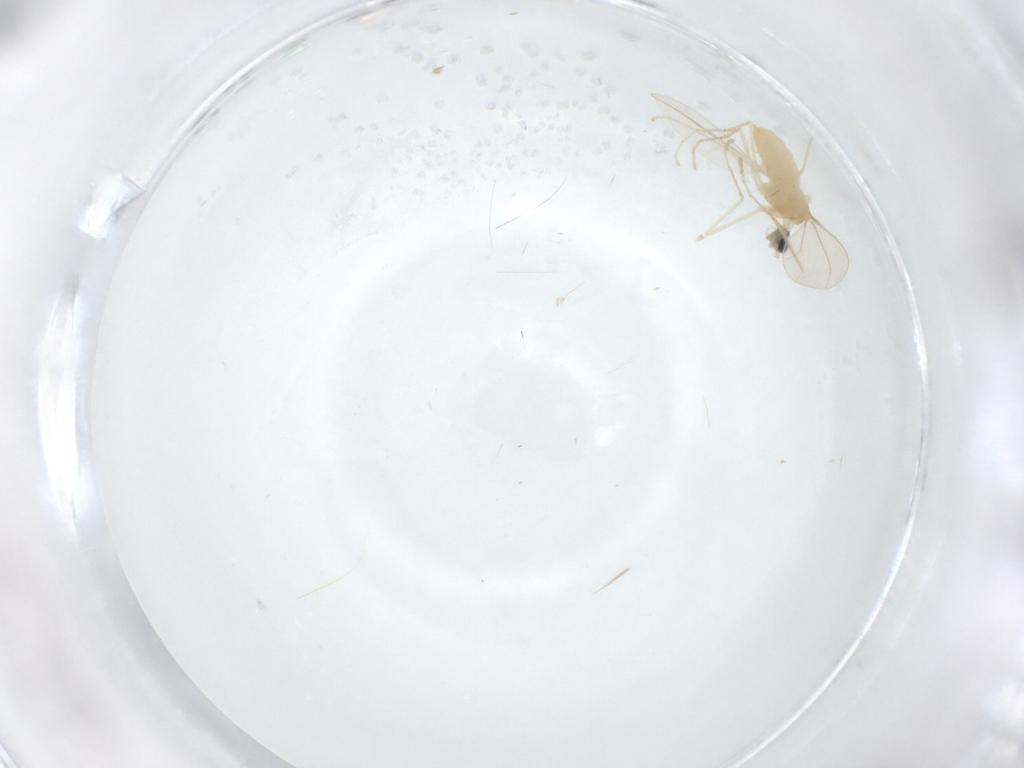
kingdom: Animalia
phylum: Arthropoda
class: Insecta
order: Diptera
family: Cecidomyiidae
